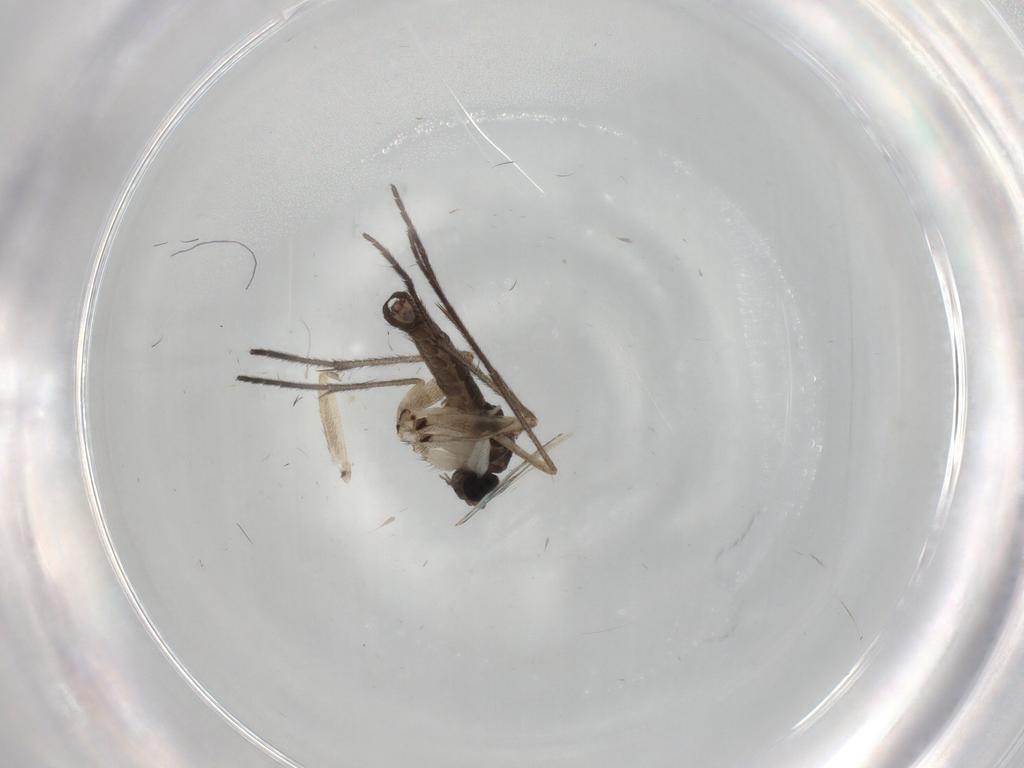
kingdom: Animalia
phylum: Arthropoda
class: Insecta
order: Diptera
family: Sciaridae
